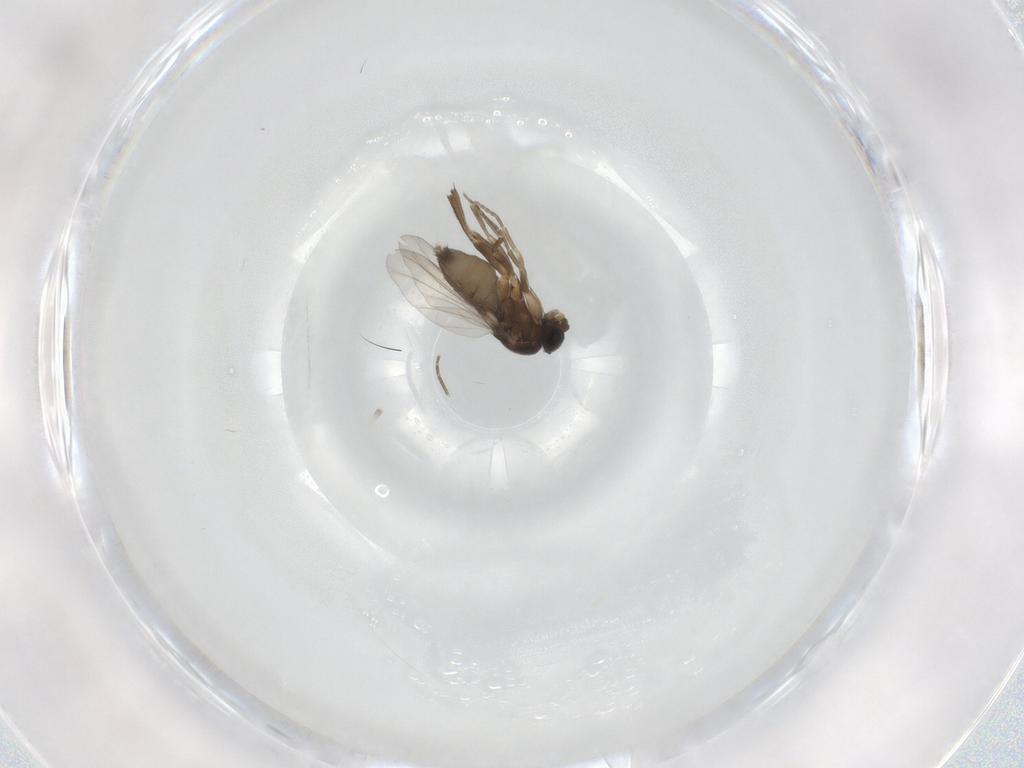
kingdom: Animalia
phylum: Arthropoda
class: Insecta
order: Diptera
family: Phoridae
